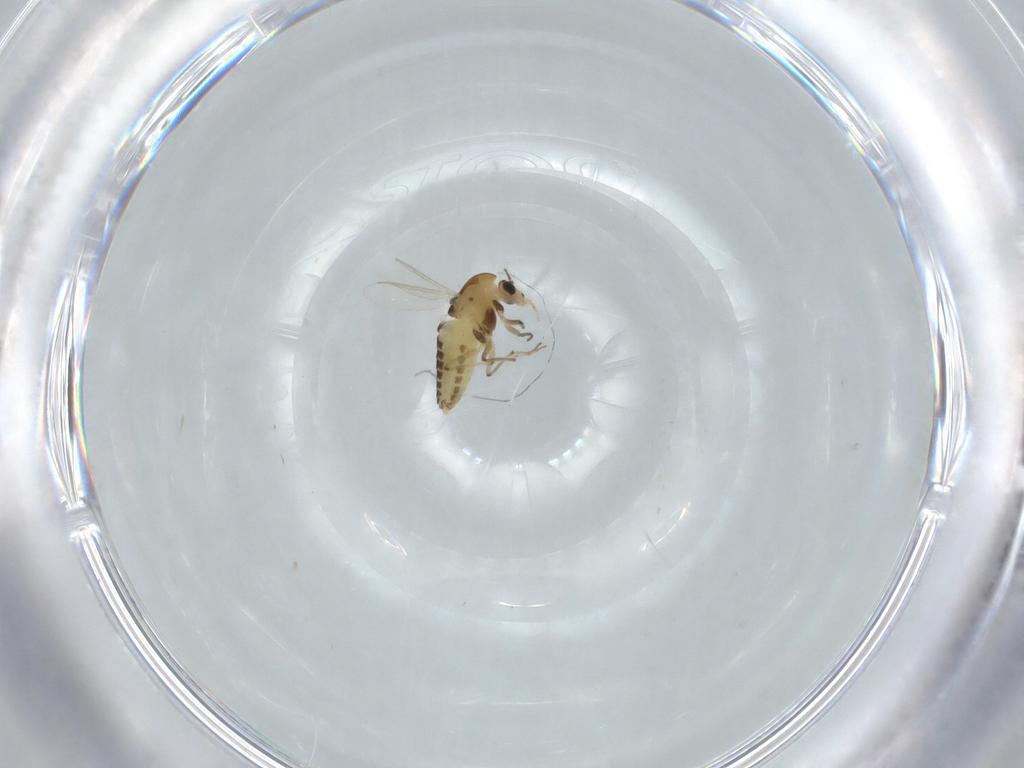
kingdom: Animalia
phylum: Arthropoda
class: Insecta
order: Diptera
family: Chironomidae
